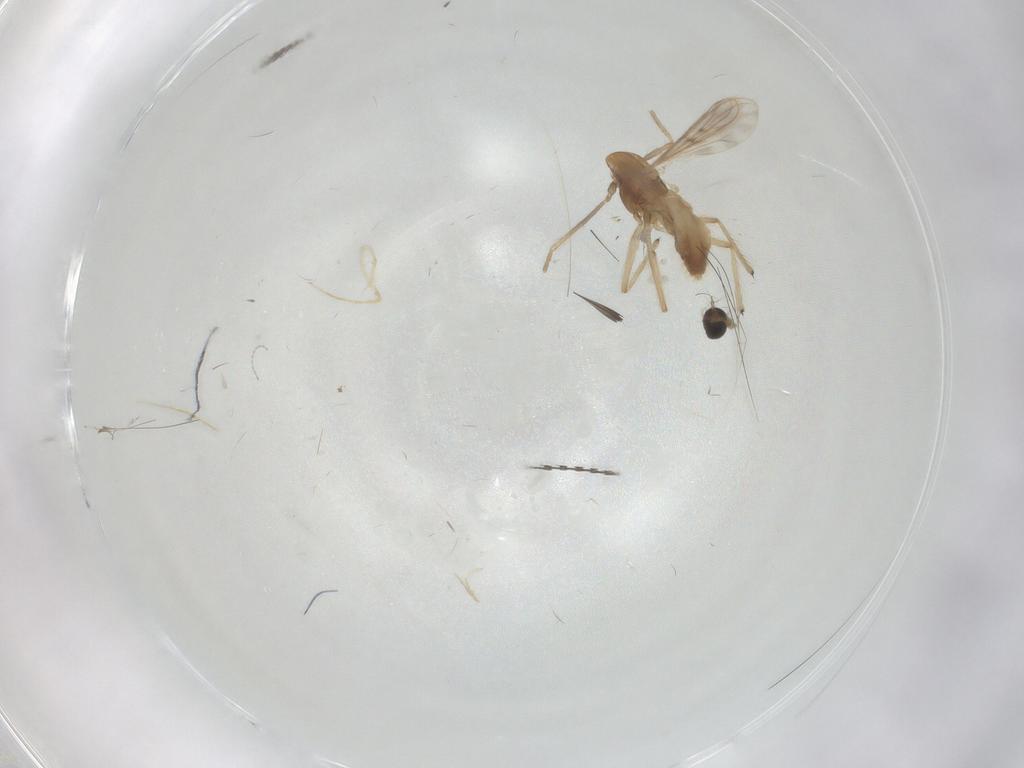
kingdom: Animalia
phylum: Arthropoda
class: Insecta
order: Diptera
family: Chironomidae
